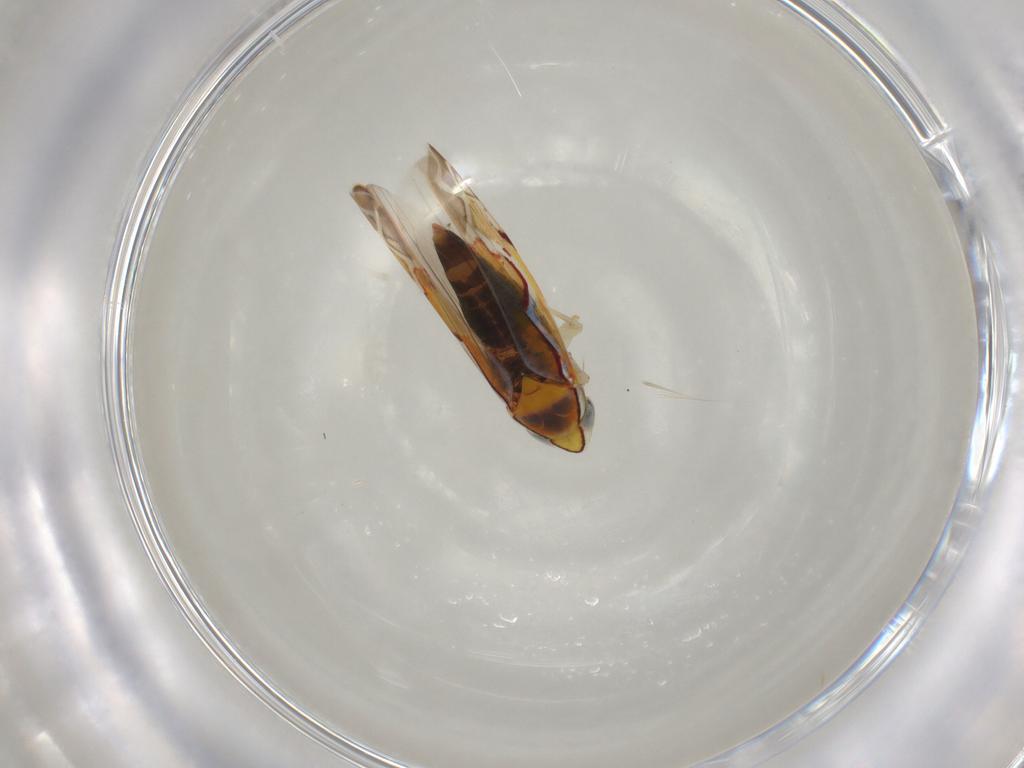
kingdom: Animalia
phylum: Arthropoda
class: Insecta
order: Hemiptera
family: Cicadellidae
